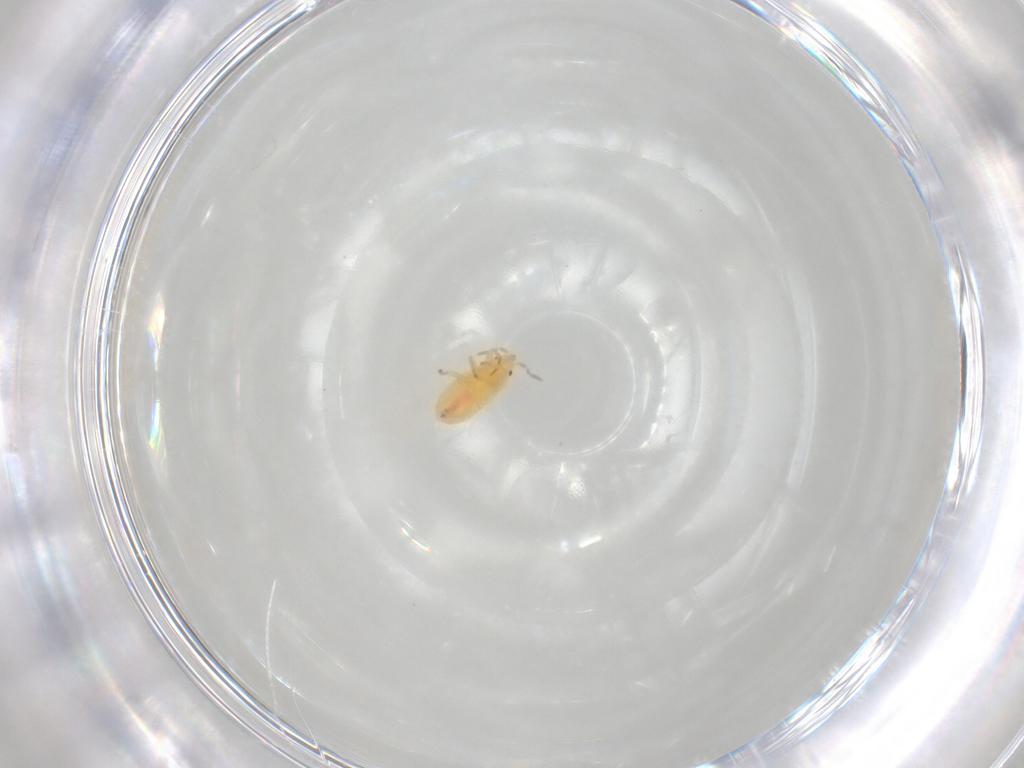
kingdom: Animalia
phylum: Arthropoda
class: Insecta
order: Hemiptera
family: Anthocoridae
